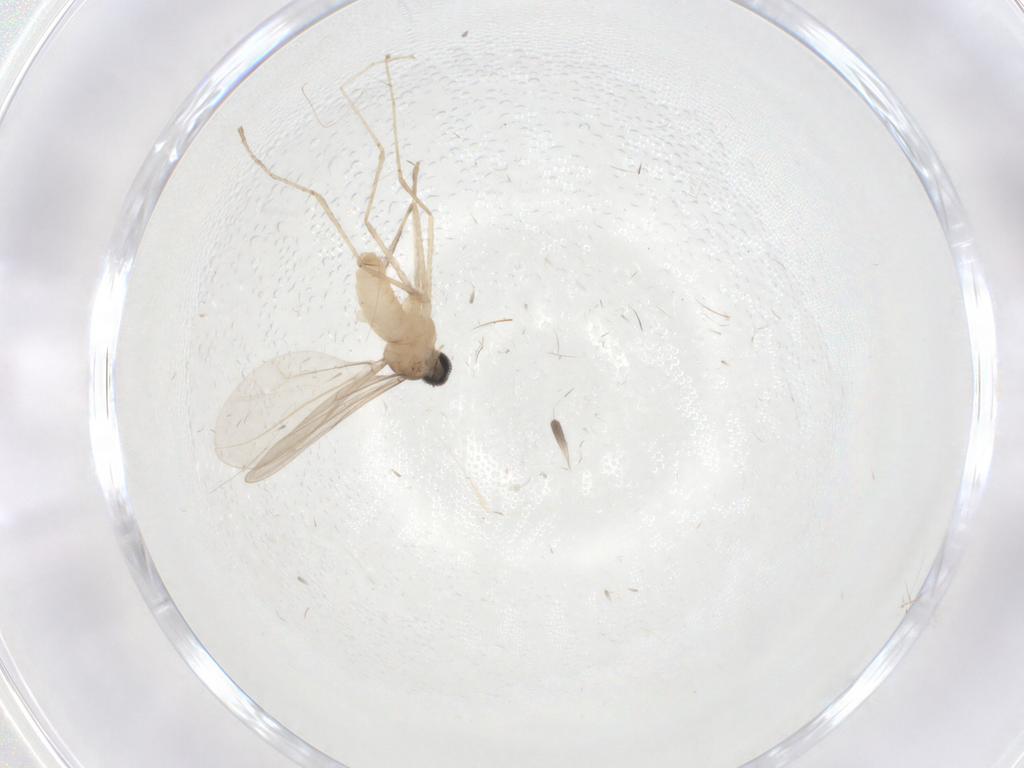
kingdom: Animalia
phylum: Arthropoda
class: Insecta
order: Diptera
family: Cecidomyiidae
